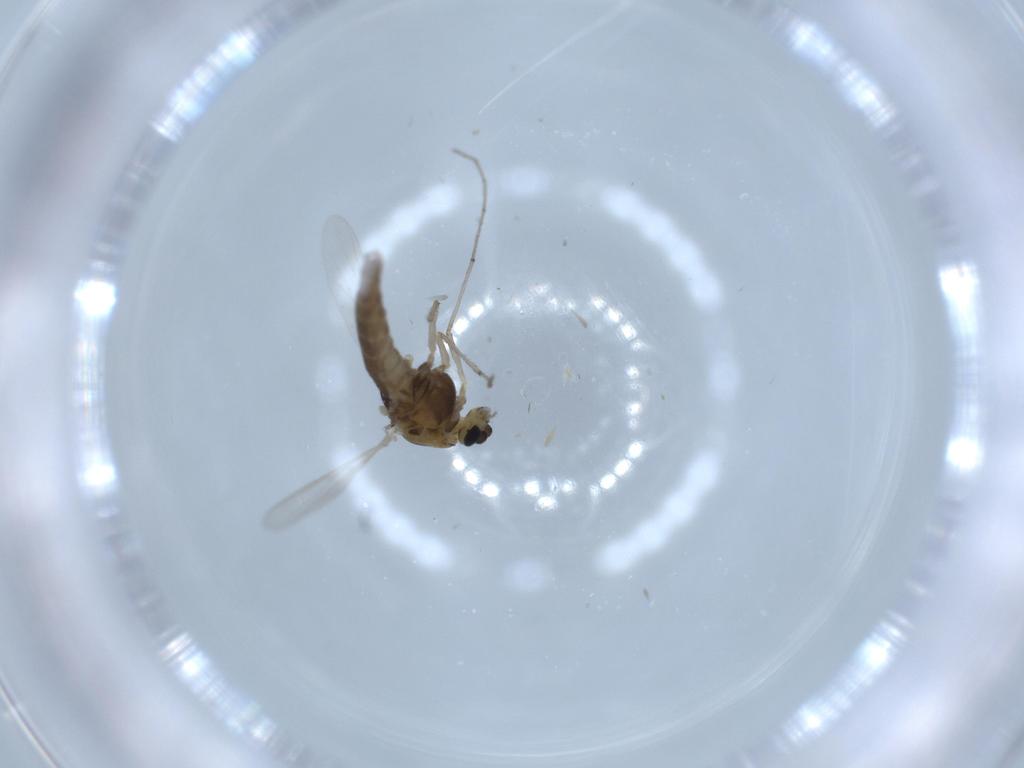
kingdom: Animalia
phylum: Arthropoda
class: Insecta
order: Diptera
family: Chironomidae
